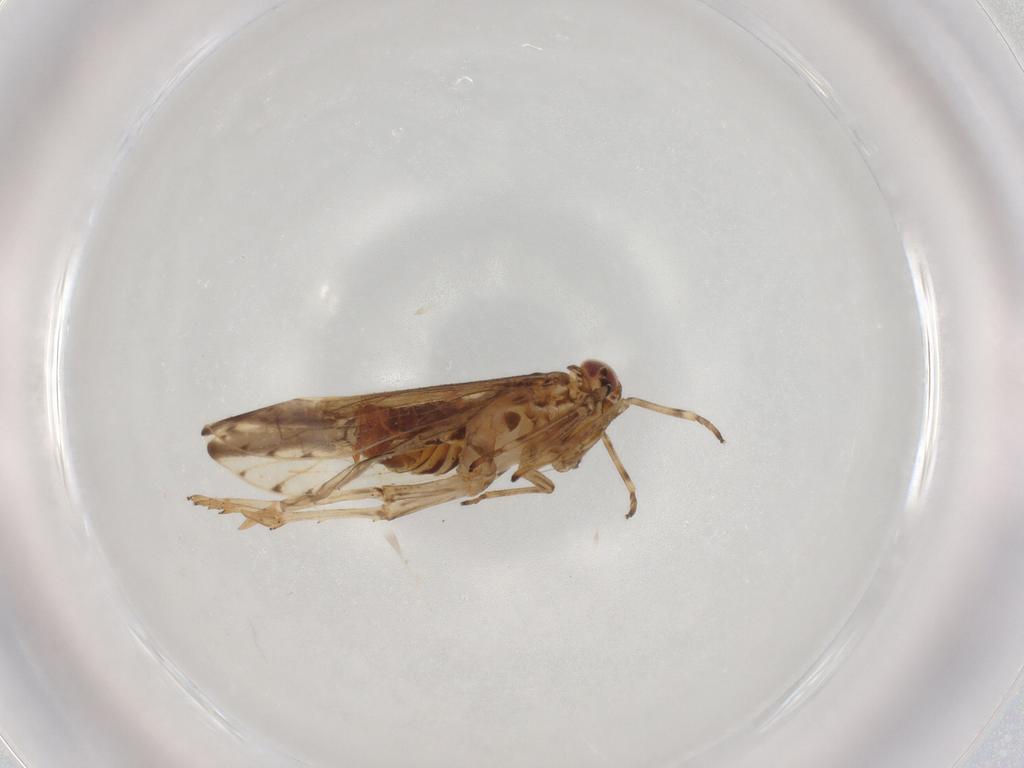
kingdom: Animalia
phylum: Arthropoda
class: Insecta
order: Hemiptera
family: Delphacidae
